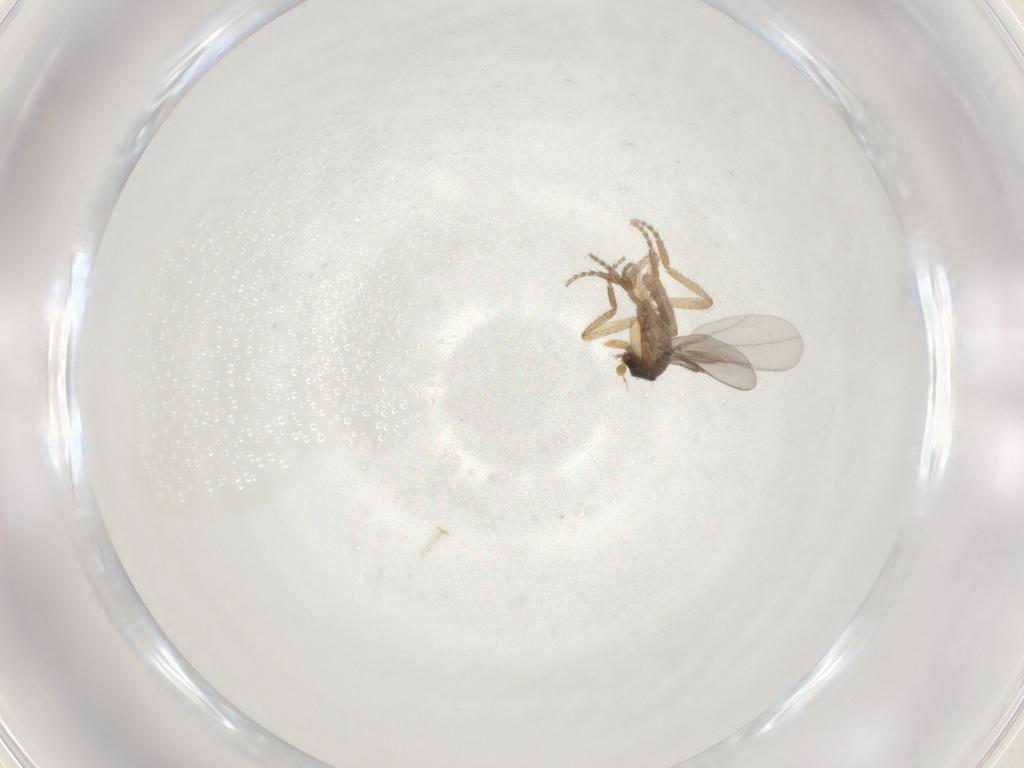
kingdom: Animalia
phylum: Arthropoda
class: Insecta
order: Diptera
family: Phoridae
